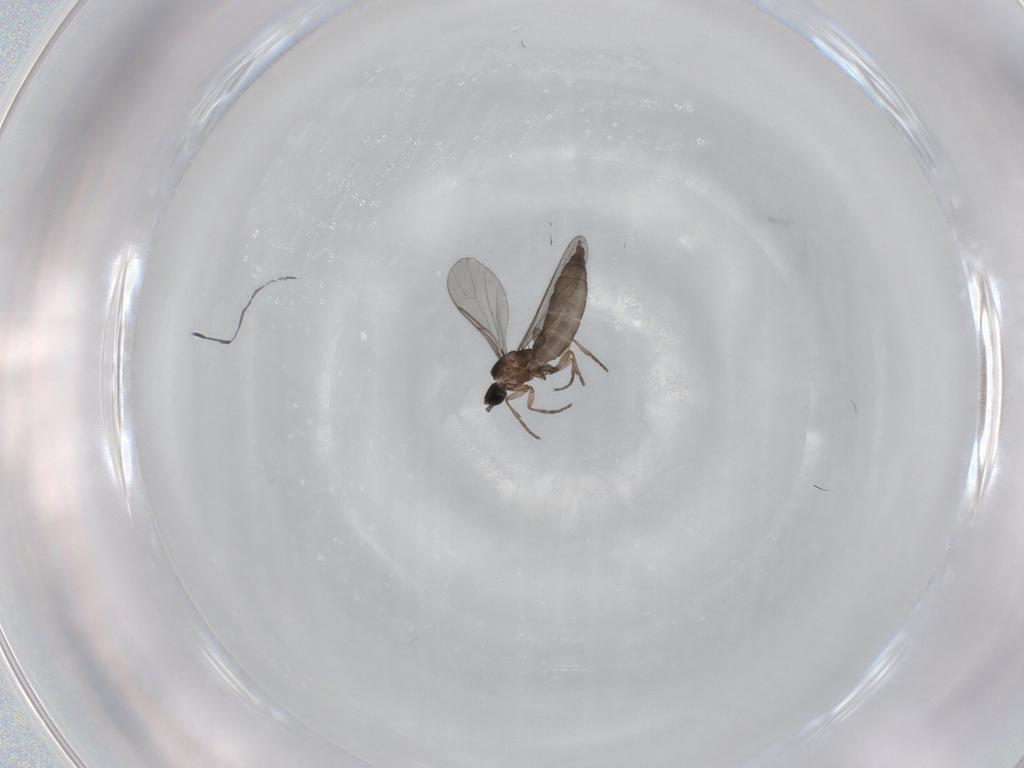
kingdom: Animalia
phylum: Arthropoda
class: Insecta
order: Diptera
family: Sciaridae
